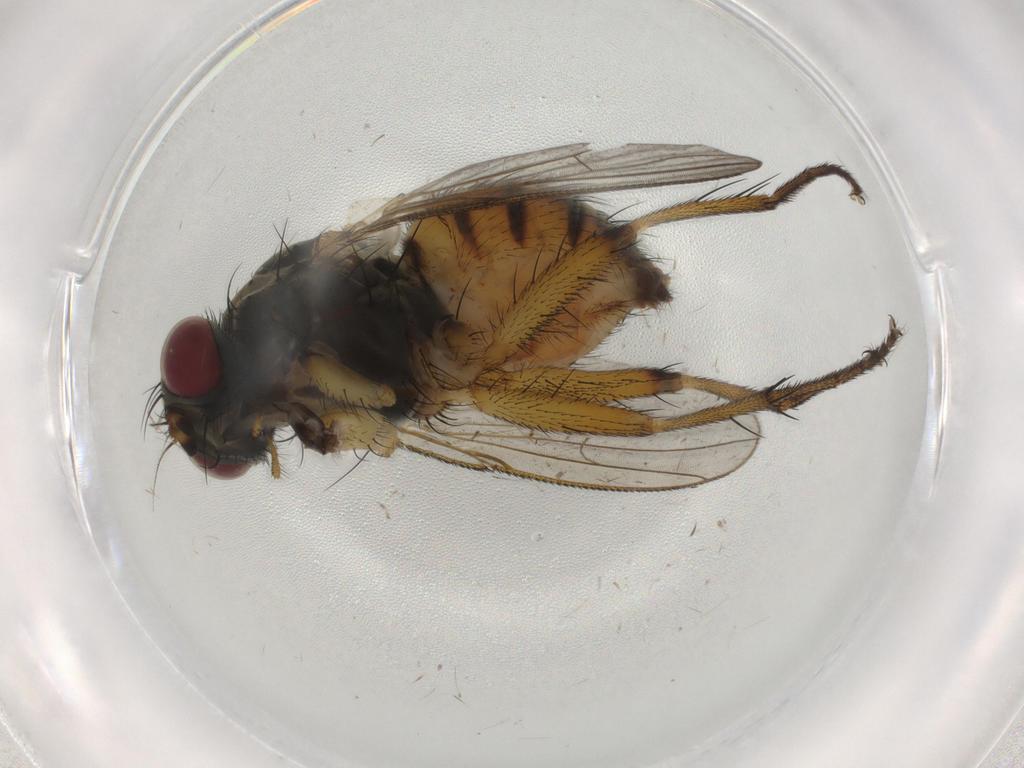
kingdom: Animalia
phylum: Arthropoda
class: Insecta
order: Diptera
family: Muscidae
